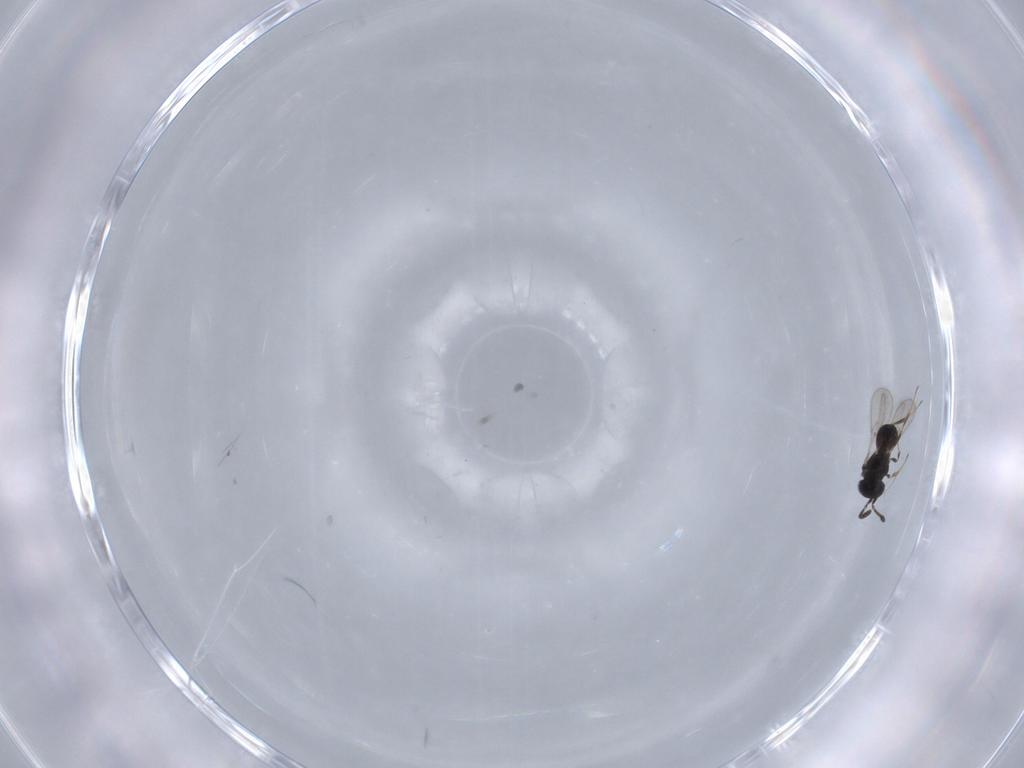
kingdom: Animalia
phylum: Arthropoda
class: Insecta
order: Hymenoptera
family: Scelionidae
